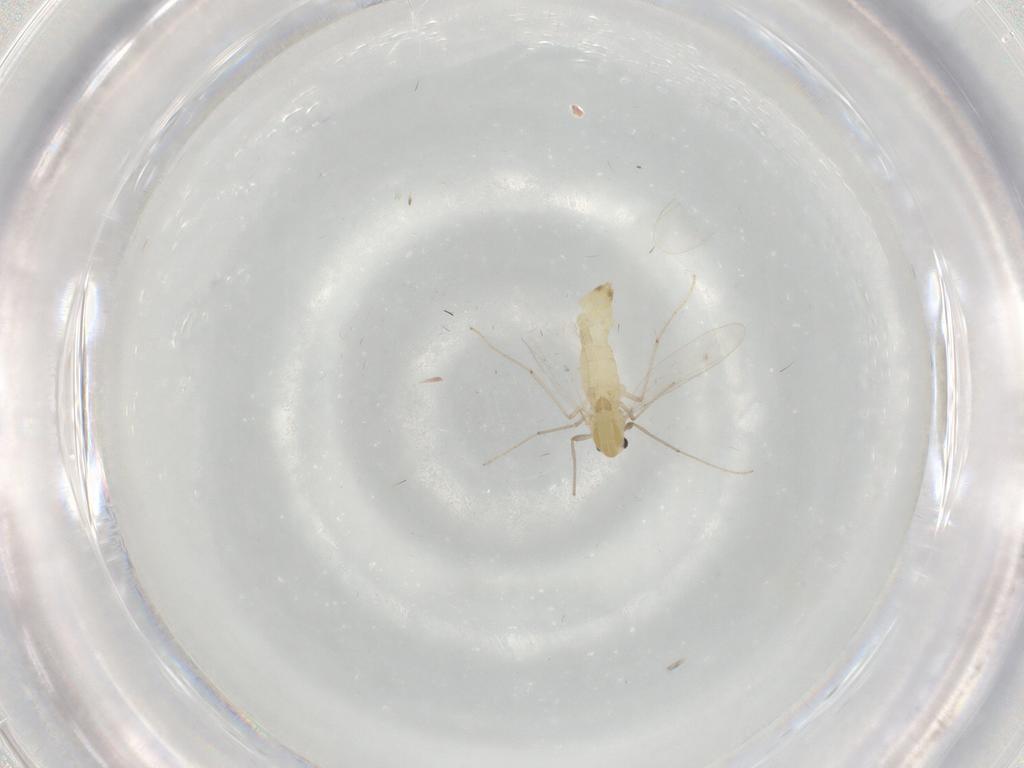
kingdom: Animalia
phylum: Arthropoda
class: Insecta
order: Diptera
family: Chironomidae
